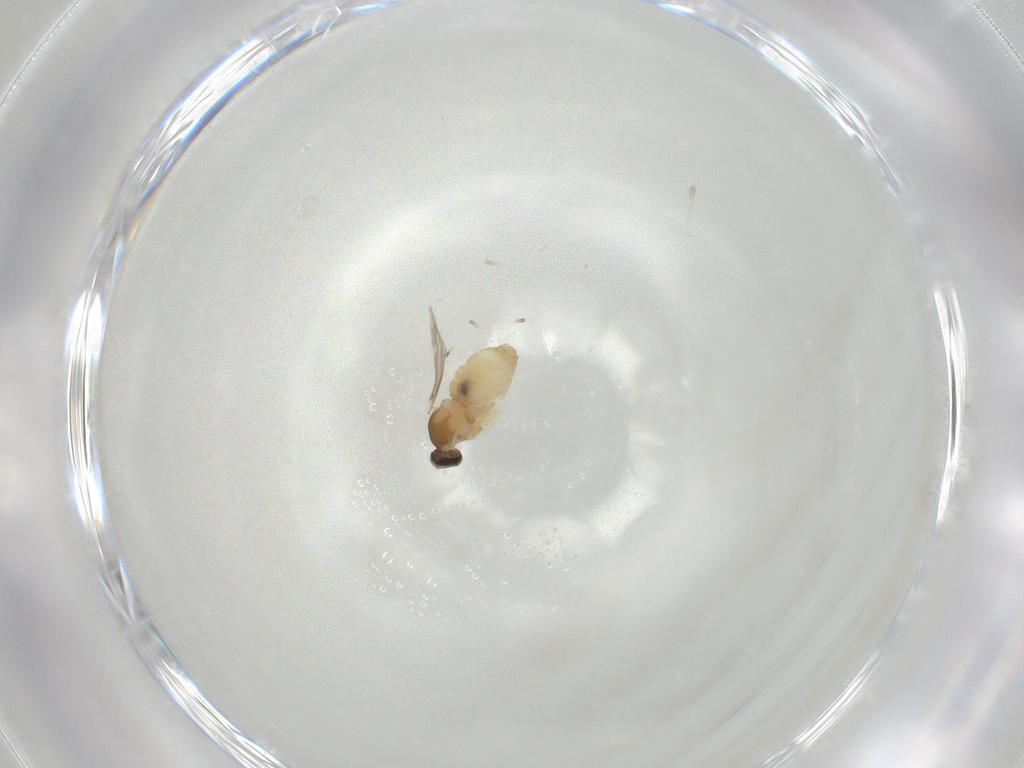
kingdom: Animalia
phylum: Arthropoda
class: Insecta
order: Diptera
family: Cecidomyiidae
